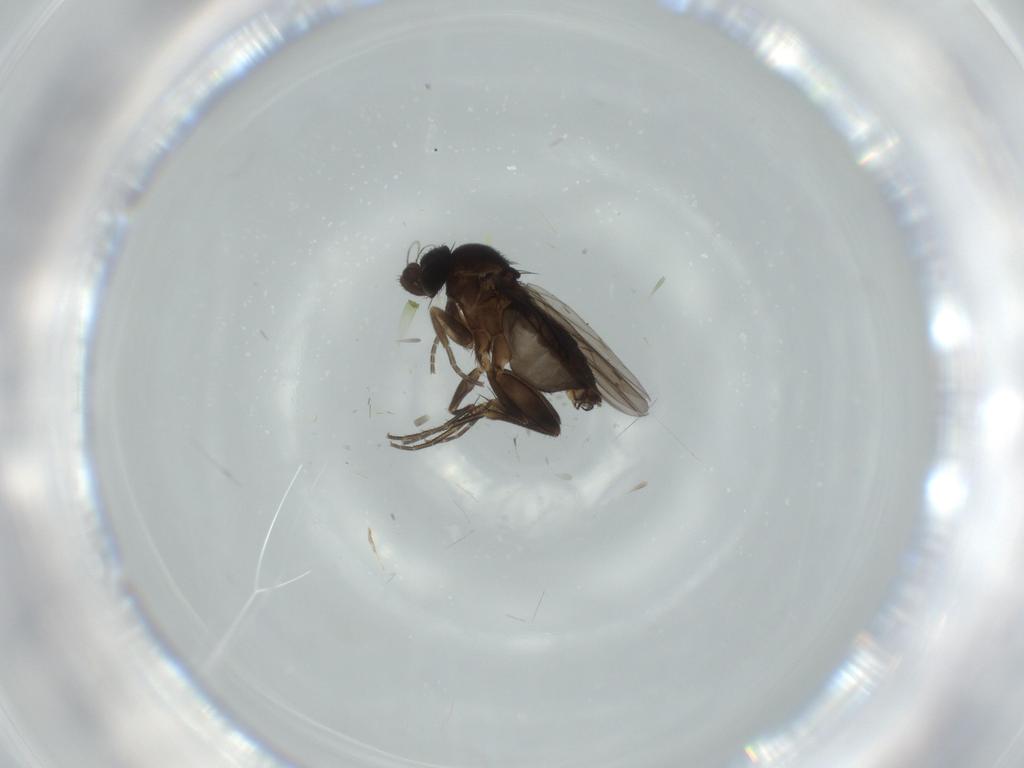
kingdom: Animalia
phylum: Arthropoda
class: Insecta
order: Diptera
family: Phoridae
